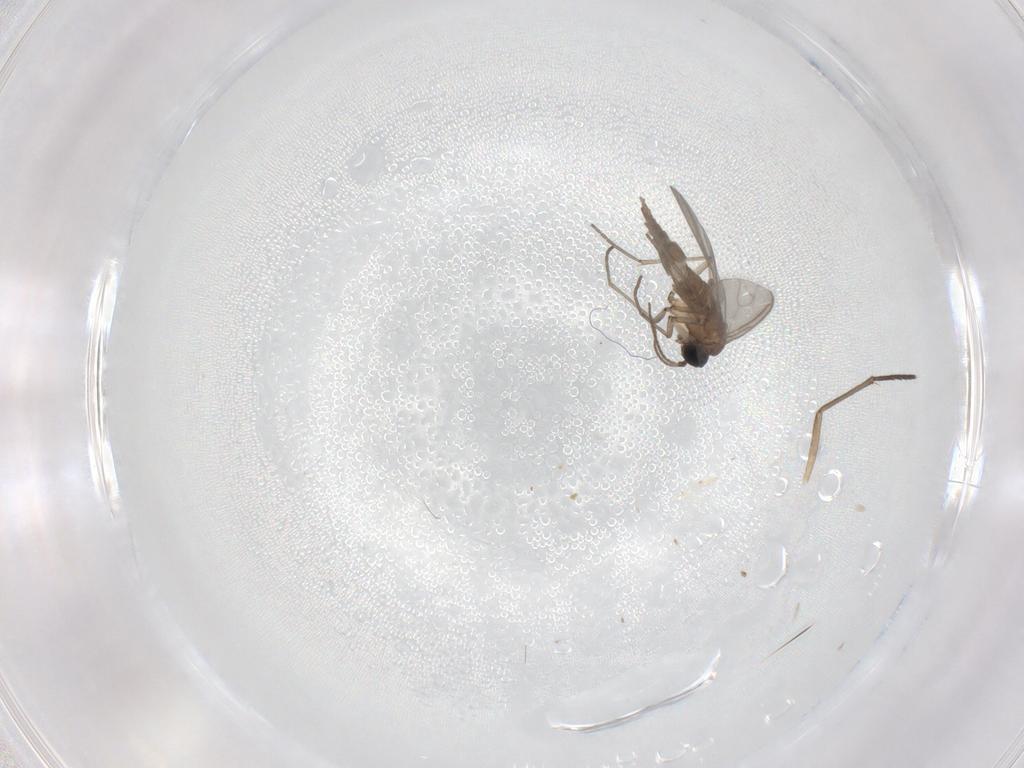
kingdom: Animalia
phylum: Arthropoda
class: Insecta
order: Diptera
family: Sciaridae
